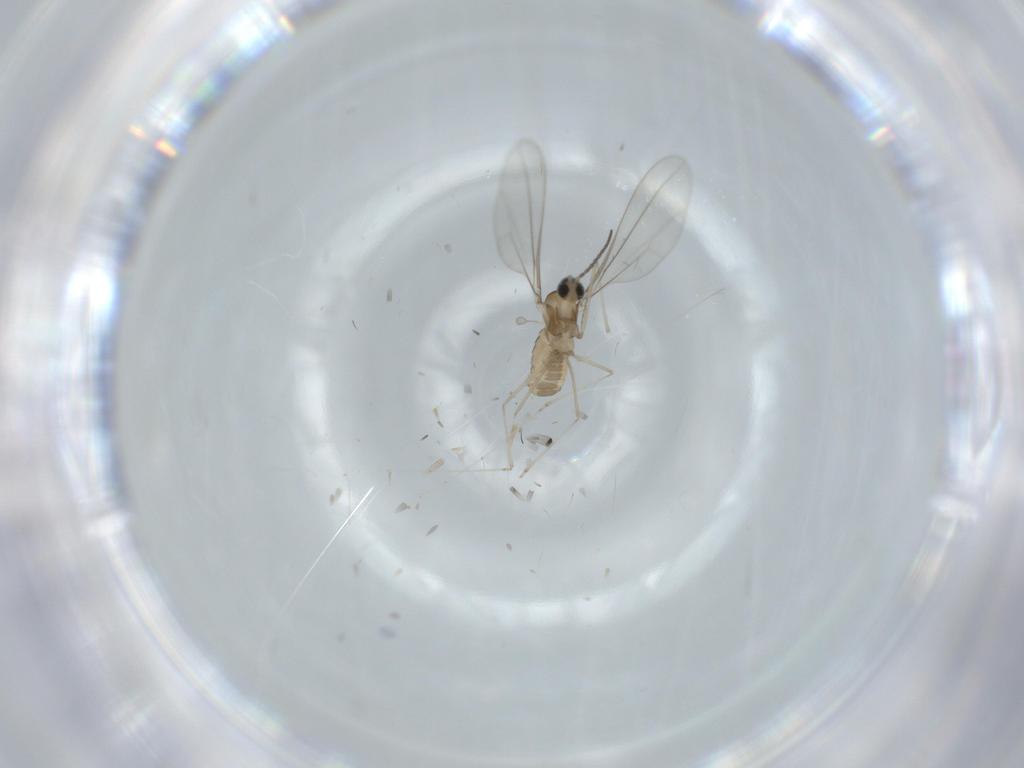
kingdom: Animalia
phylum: Arthropoda
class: Insecta
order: Diptera
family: Cecidomyiidae
